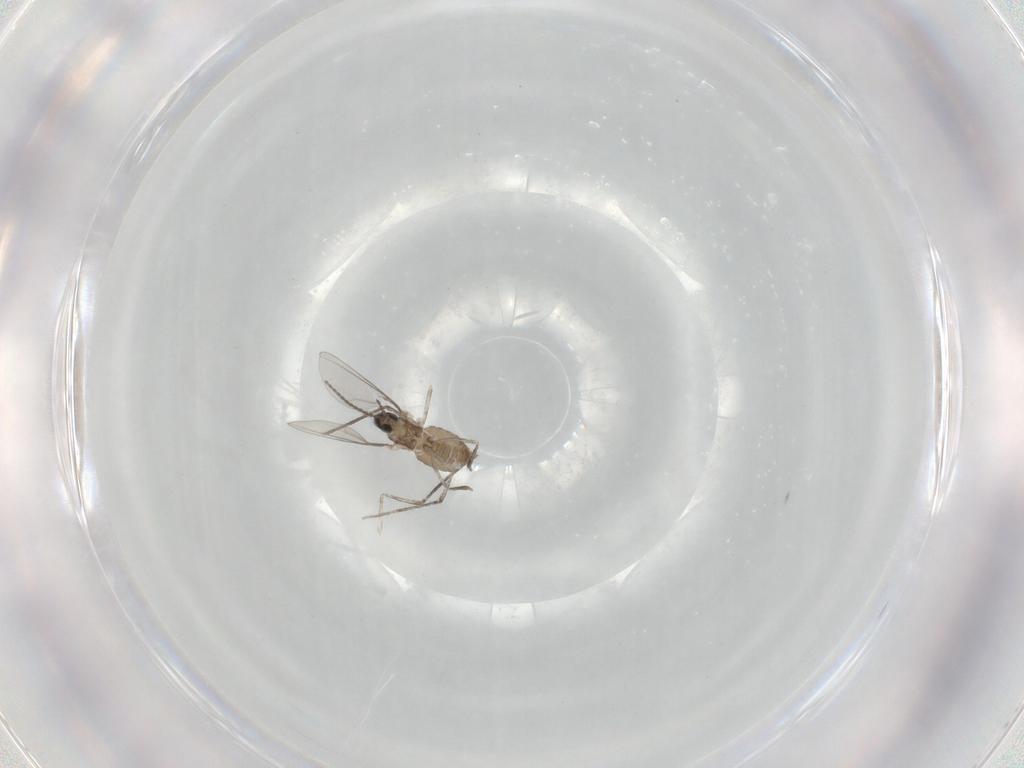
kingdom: Animalia
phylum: Arthropoda
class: Insecta
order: Diptera
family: Cecidomyiidae
